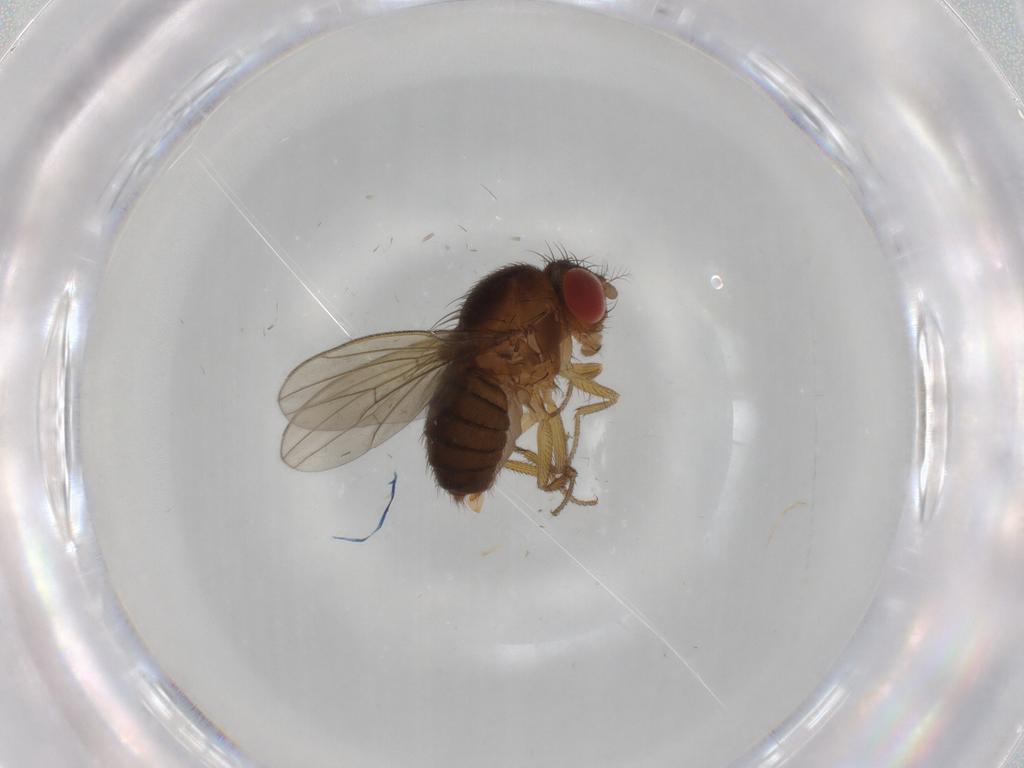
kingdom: Animalia
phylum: Arthropoda
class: Insecta
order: Diptera
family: Drosophilidae
